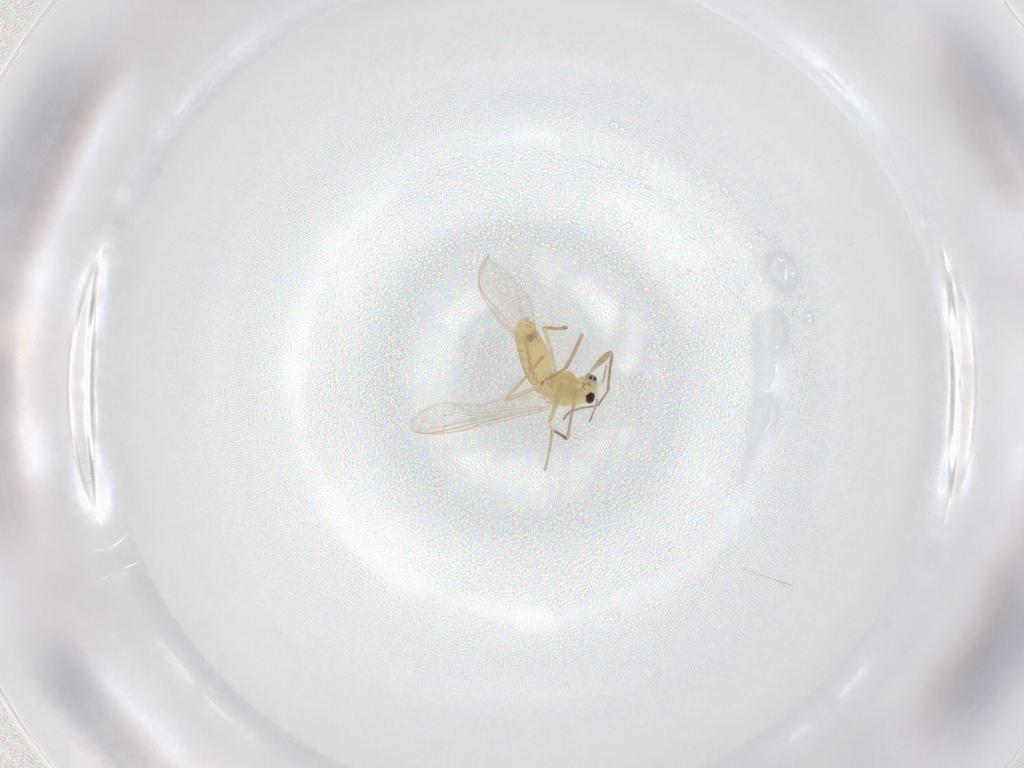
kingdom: Animalia
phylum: Arthropoda
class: Insecta
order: Diptera
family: Chironomidae
